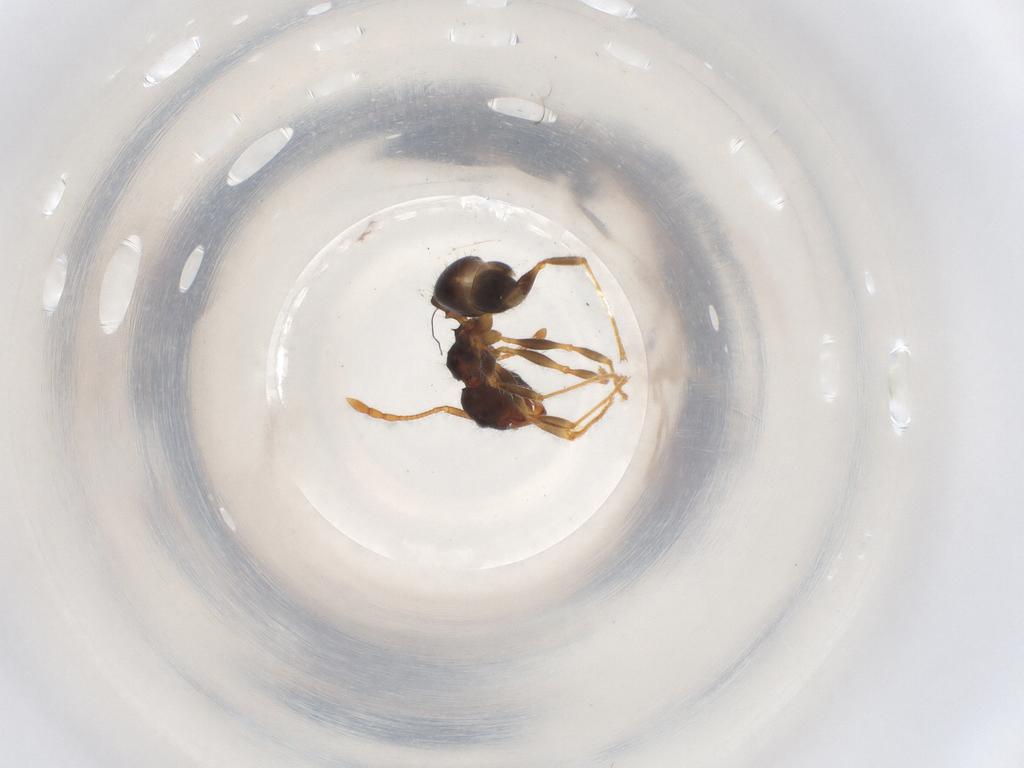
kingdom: Animalia
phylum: Arthropoda
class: Insecta
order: Hymenoptera
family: Formicidae
